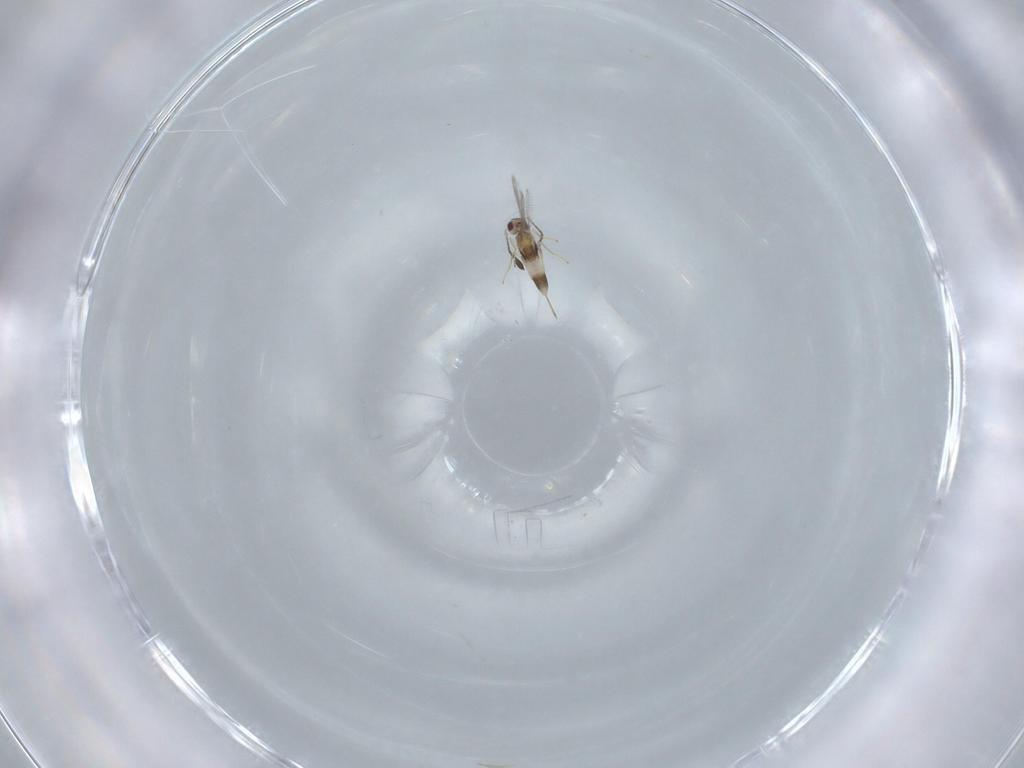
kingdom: Animalia
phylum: Arthropoda
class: Insecta
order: Hymenoptera
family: Mymaridae
